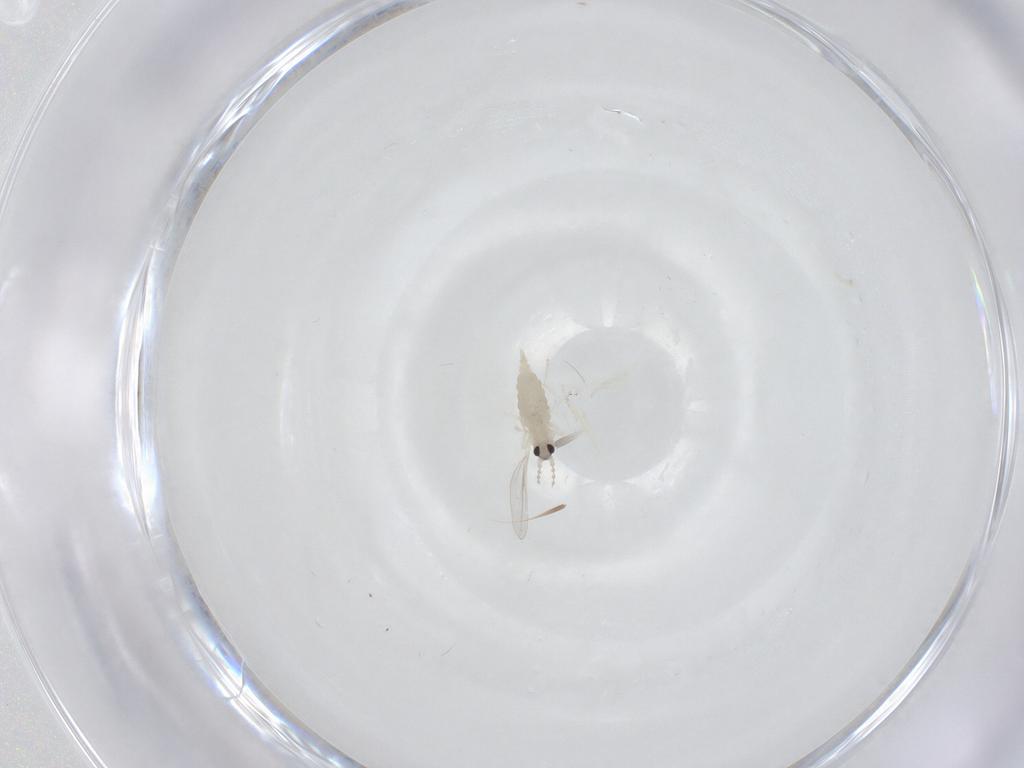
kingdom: Animalia
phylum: Arthropoda
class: Insecta
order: Diptera
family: Cecidomyiidae
